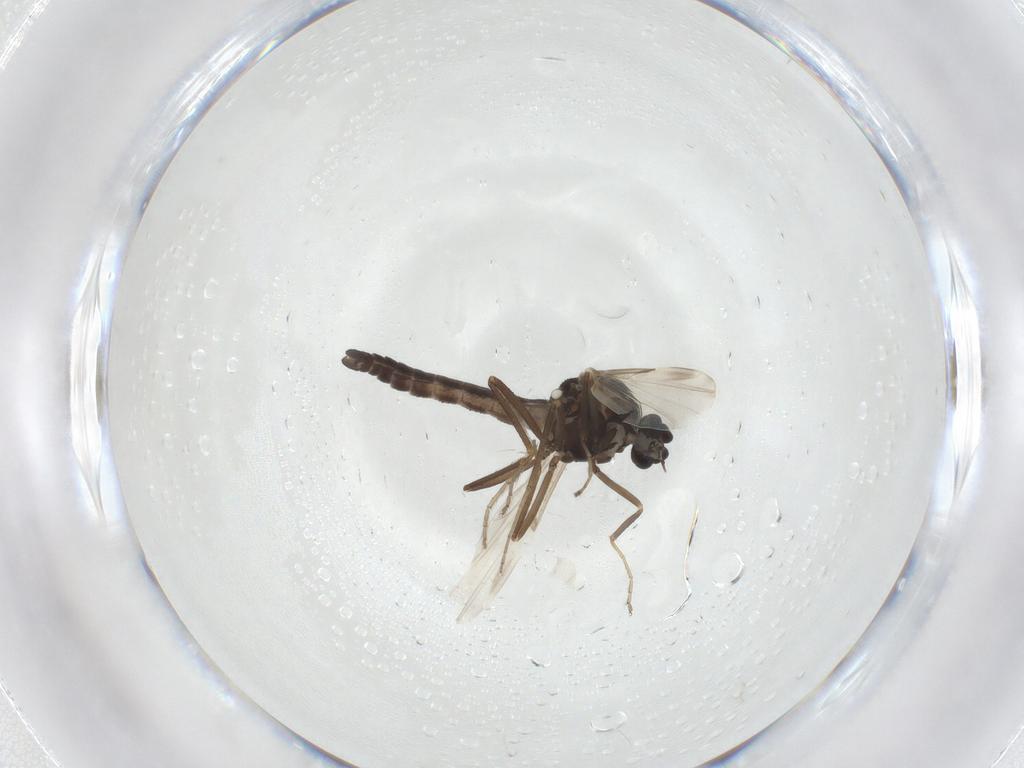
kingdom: Animalia
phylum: Arthropoda
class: Insecta
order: Diptera
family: Ceratopogonidae
